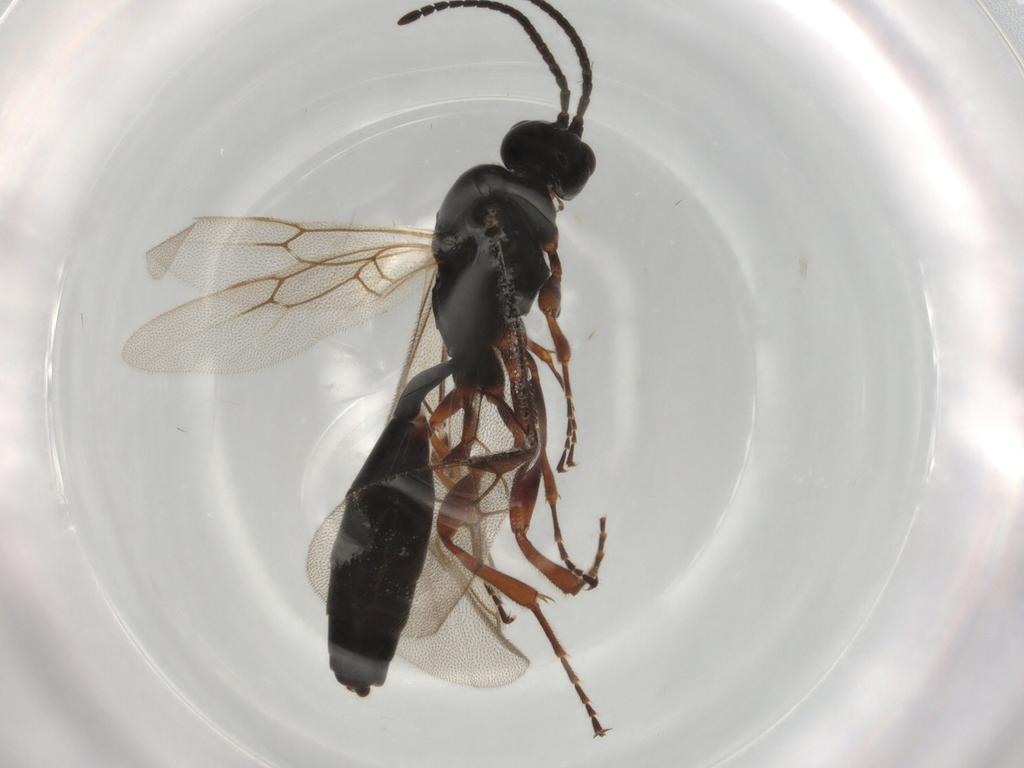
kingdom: Animalia
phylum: Arthropoda
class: Insecta
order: Hymenoptera
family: Ichneumonidae
